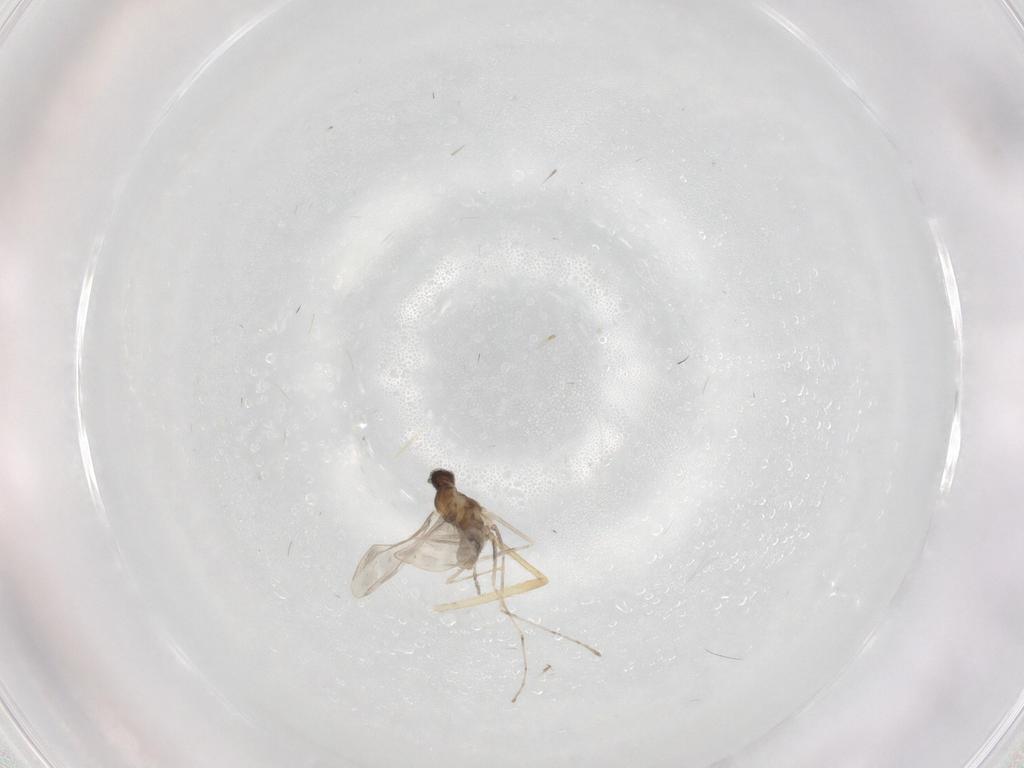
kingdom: Animalia
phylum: Arthropoda
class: Insecta
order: Diptera
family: Cecidomyiidae
